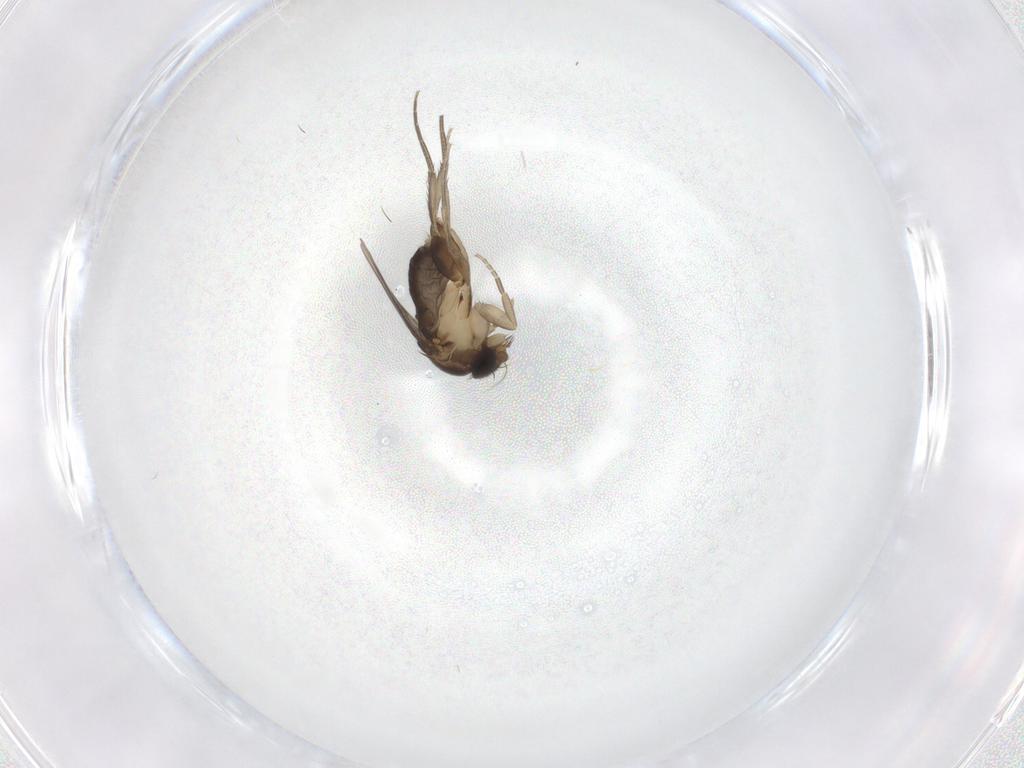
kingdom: Animalia
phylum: Arthropoda
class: Insecta
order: Diptera
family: Phoridae
